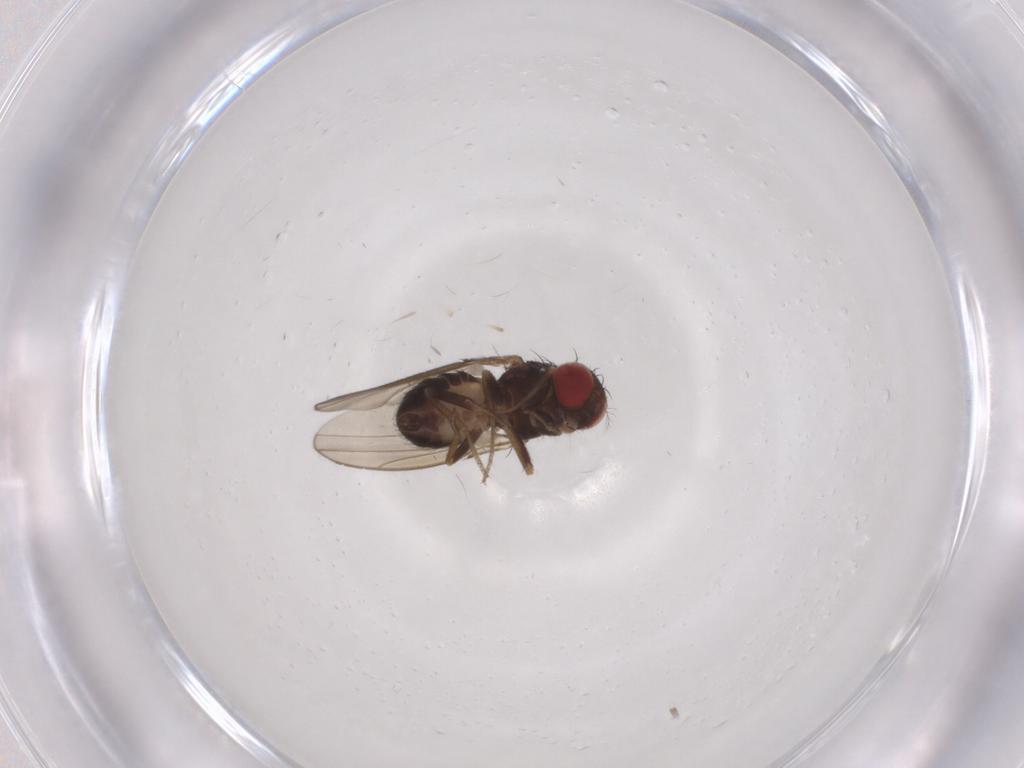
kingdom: Animalia
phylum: Arthropoda
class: Insecta
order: Diptera
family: Drosophilidae
